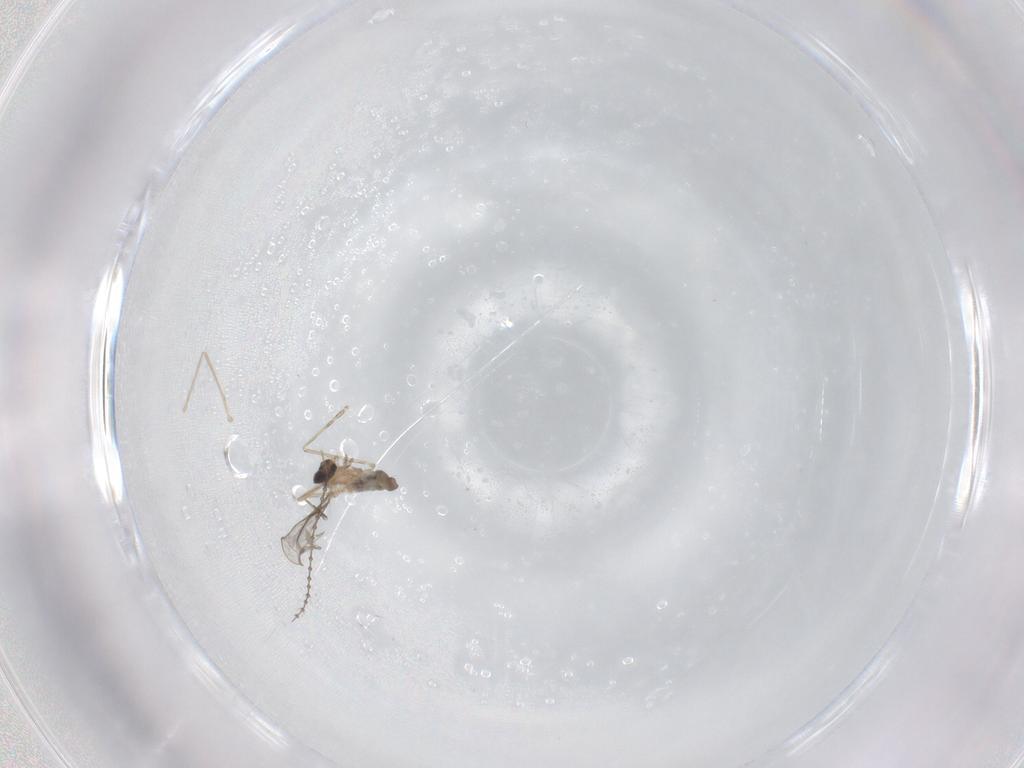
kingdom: Animalia
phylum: Arthropoda
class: Insecta
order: Diptera
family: Cecidomyiidae
